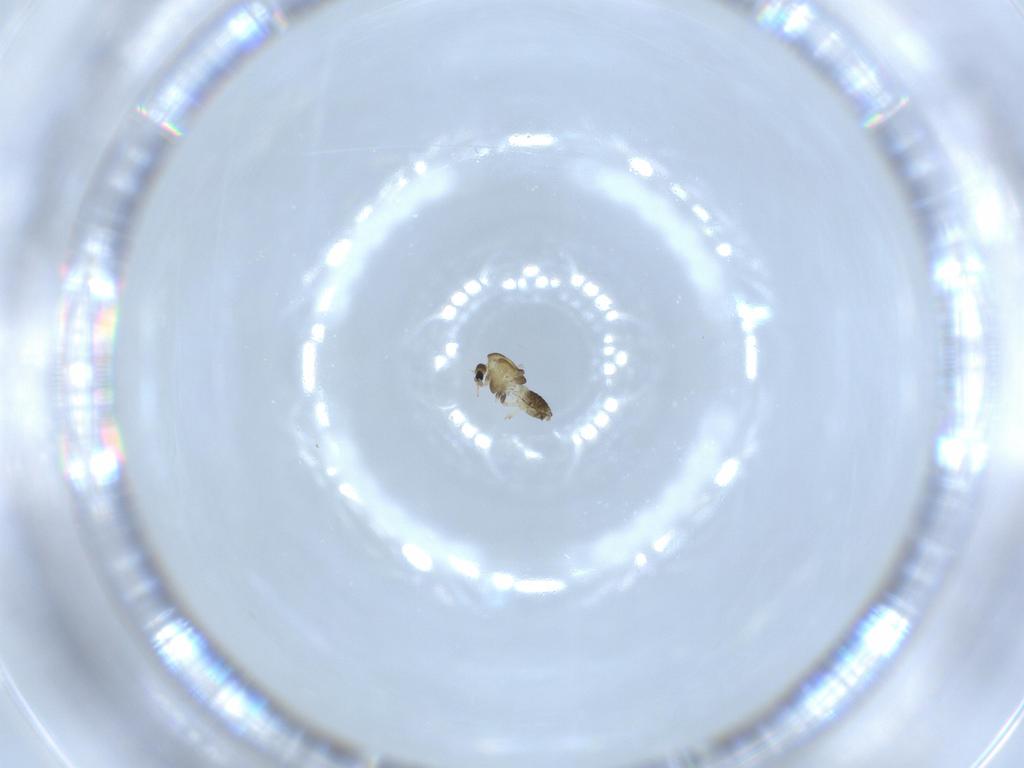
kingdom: Animalia
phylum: Arthropoda
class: Insecta
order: Diptera
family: Chironomidae
